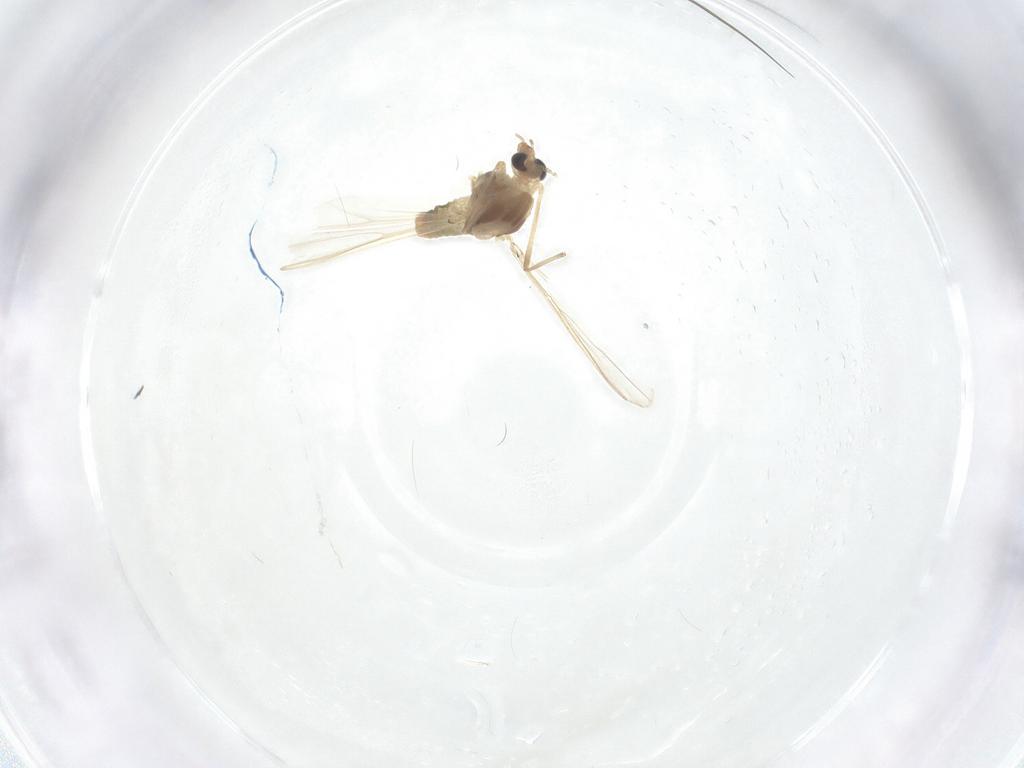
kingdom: Animalia
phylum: Arthropoda
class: Insecta
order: Diptera
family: Chironomidae
